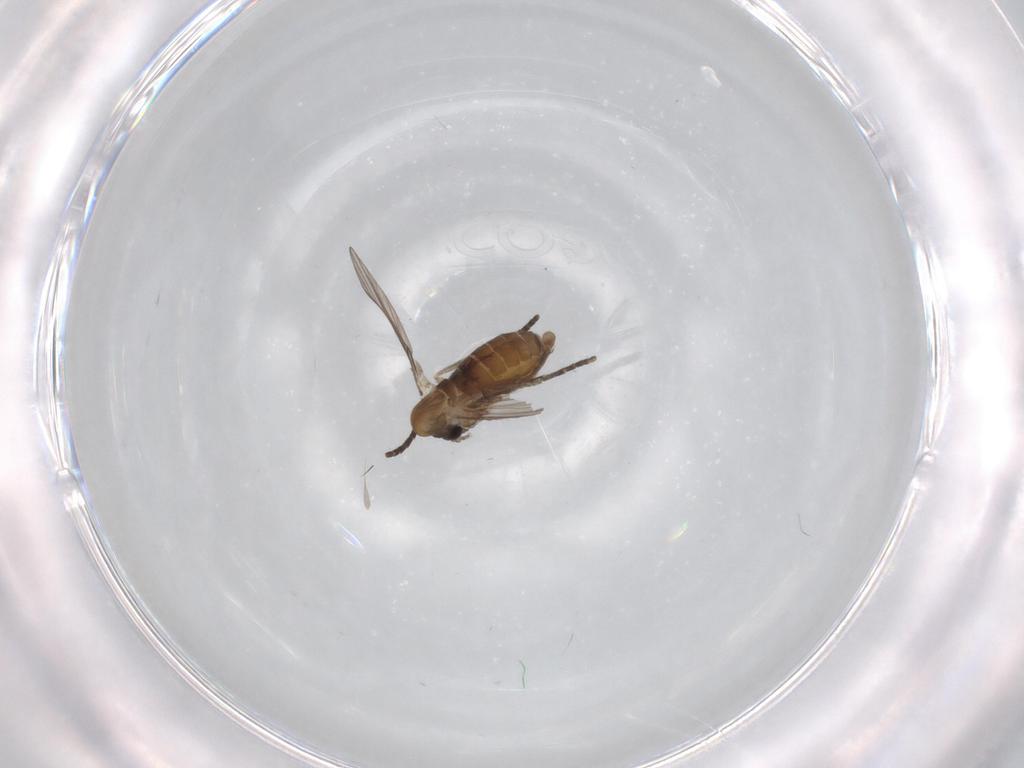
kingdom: Animalia
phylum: Arthropoda
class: Insecta
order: Diptera
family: Psychodidae
